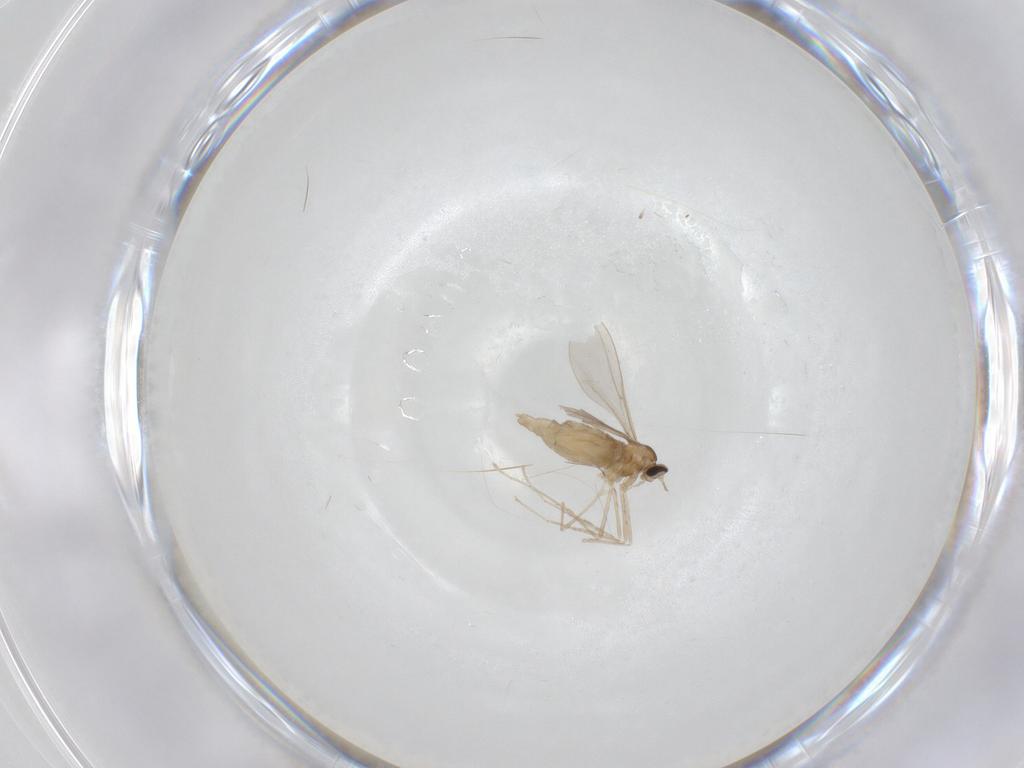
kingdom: Animalia
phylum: Arthropoda
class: Insecta
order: Diptera
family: Cecidomyiidae
